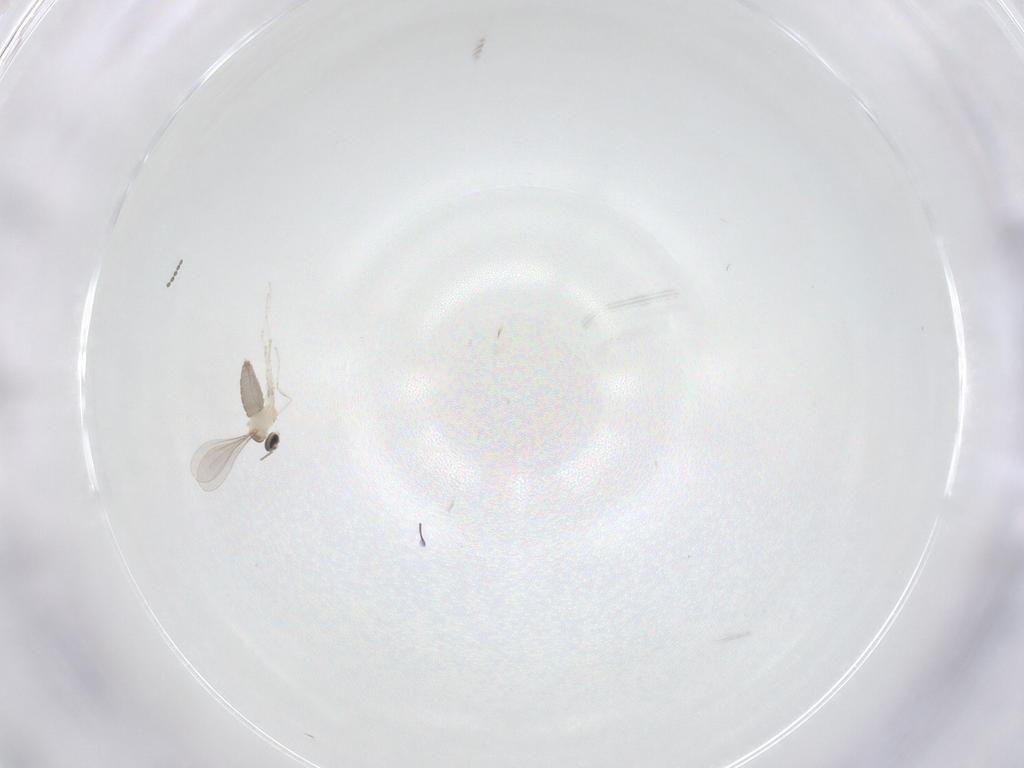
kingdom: Animalia
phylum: Arthropoda
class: Insecta
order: Diptera
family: Cecidomyiidae
